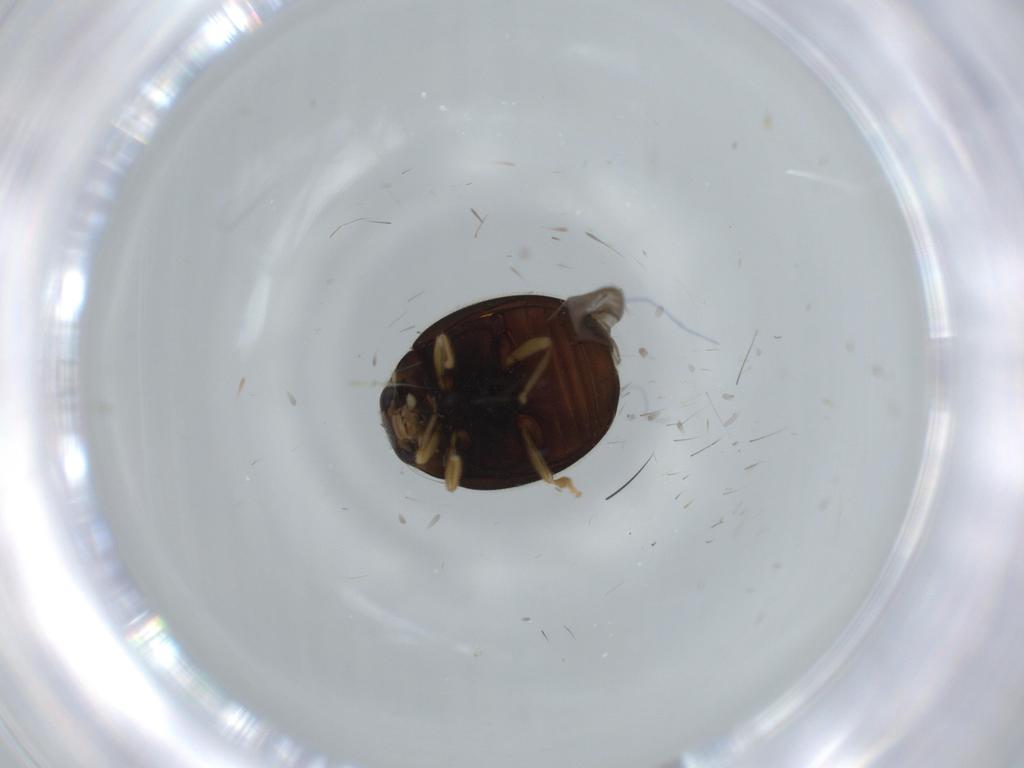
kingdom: Animalia
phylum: Arthropoda
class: Insecta
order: Coleoptera
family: Coccinellidae
